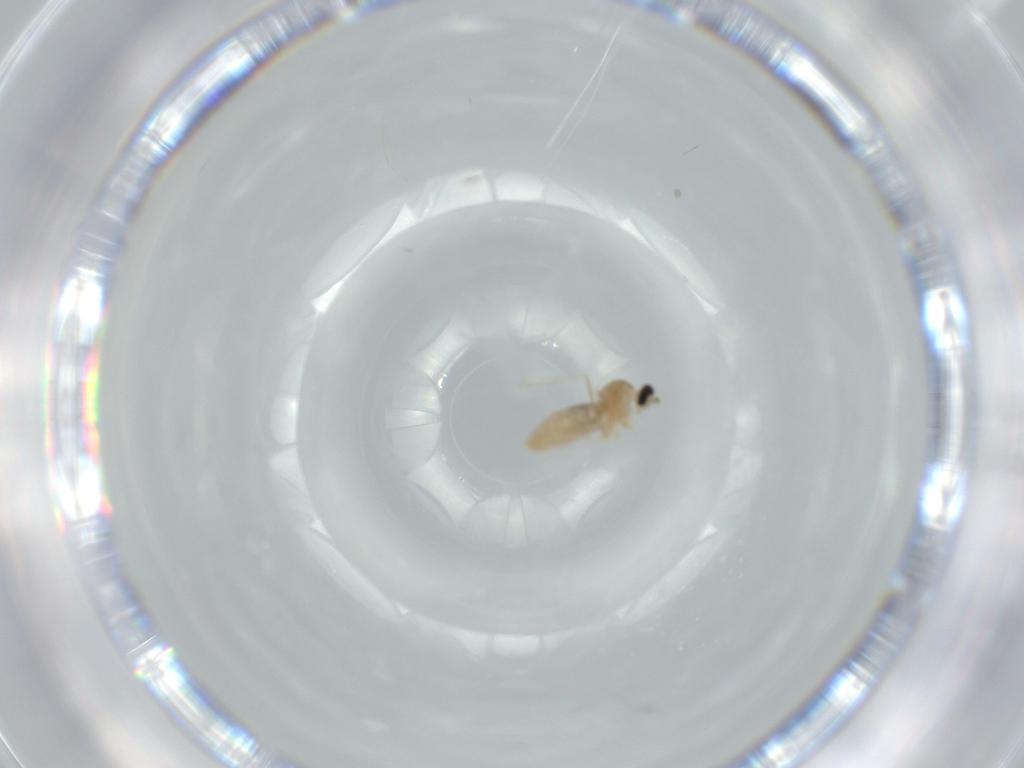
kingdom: Animalia
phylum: Arthropoda
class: Insecta
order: Diptera
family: Cecidomyiidae
